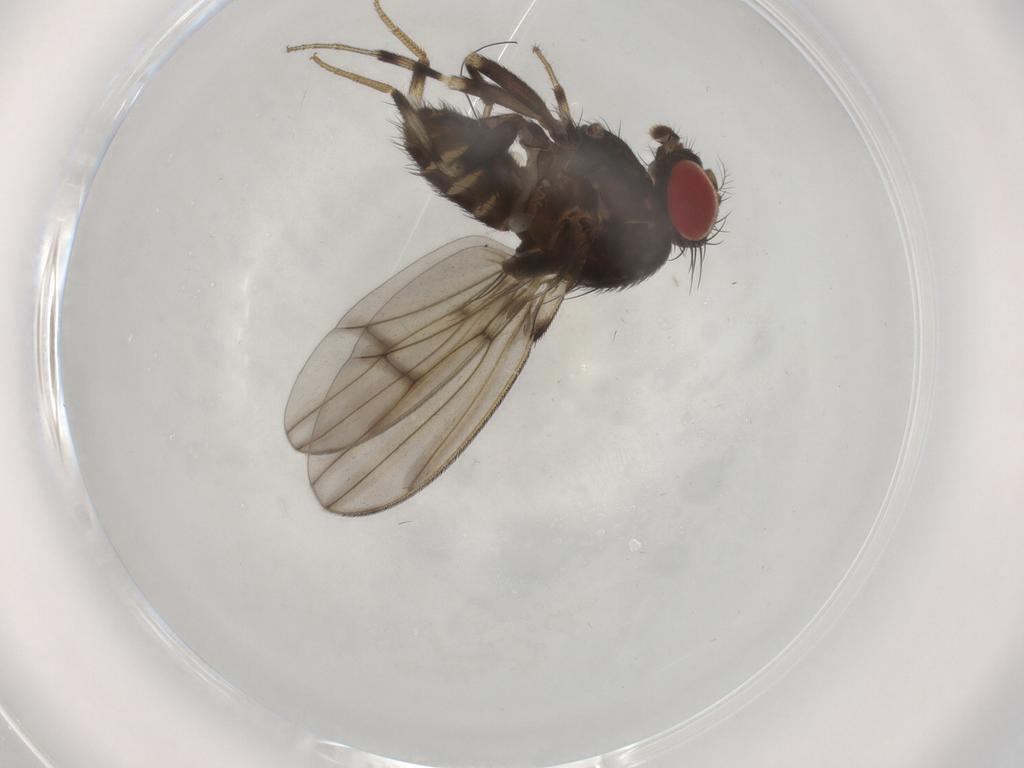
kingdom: Animalia
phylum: Arthropoda
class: Insecta
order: Diptera
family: Drosophilidae
